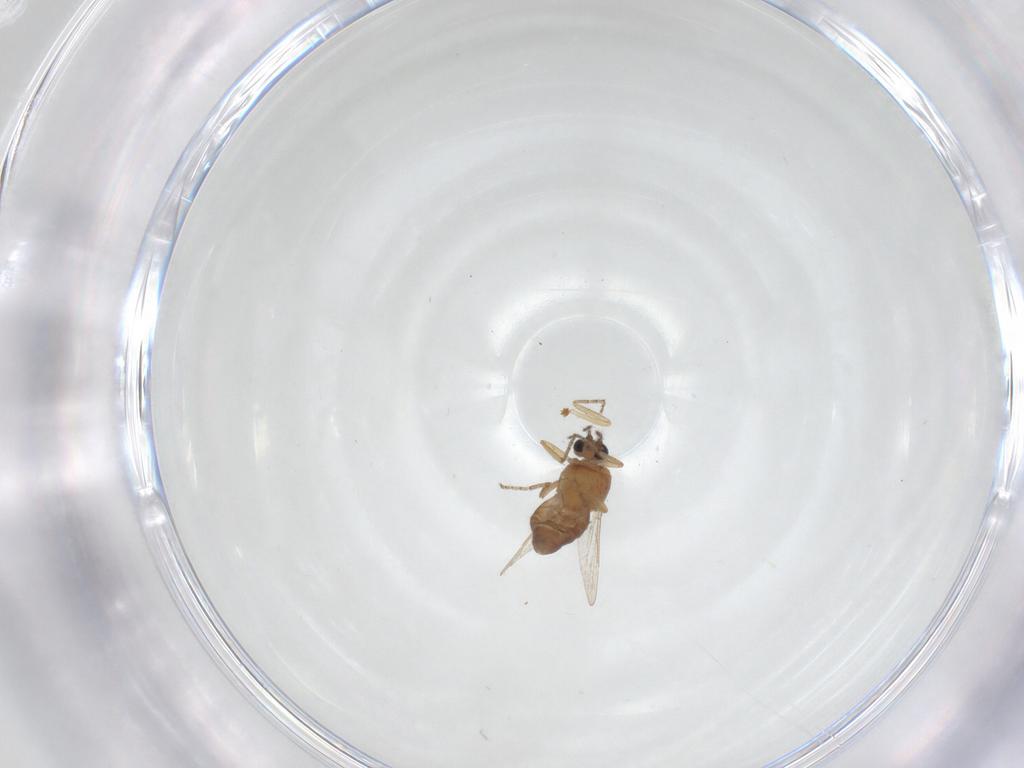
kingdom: Animalia
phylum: Arthropoda
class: Insecta
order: Diptera
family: Ceratopogonidae
